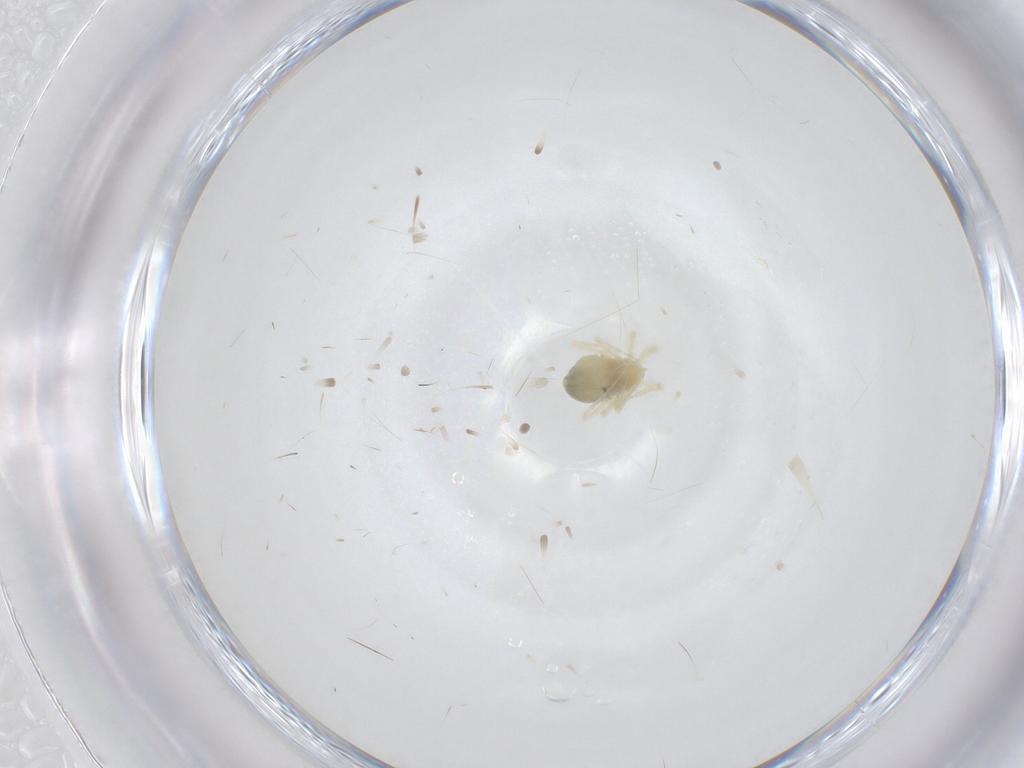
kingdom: Animalia
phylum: Arthropoda
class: Arachnida
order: Trombidiformes
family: Anystidae
